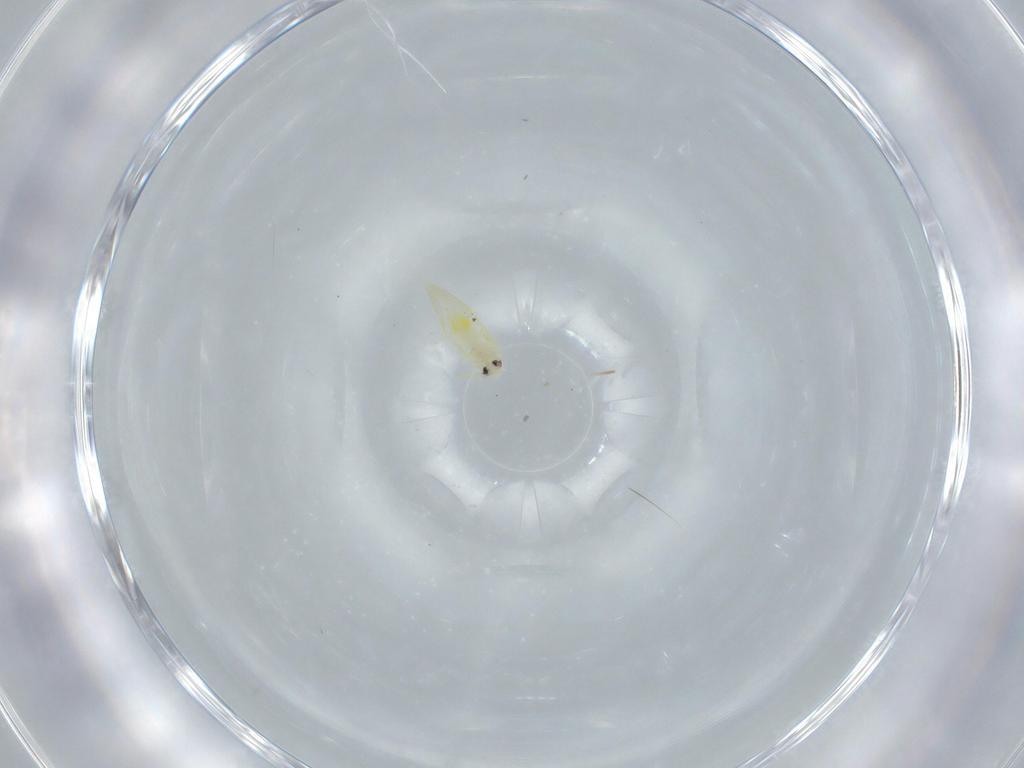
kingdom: Animalia
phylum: Arthropoda
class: Insecta
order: Hemiptera
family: Aleyrodidae
